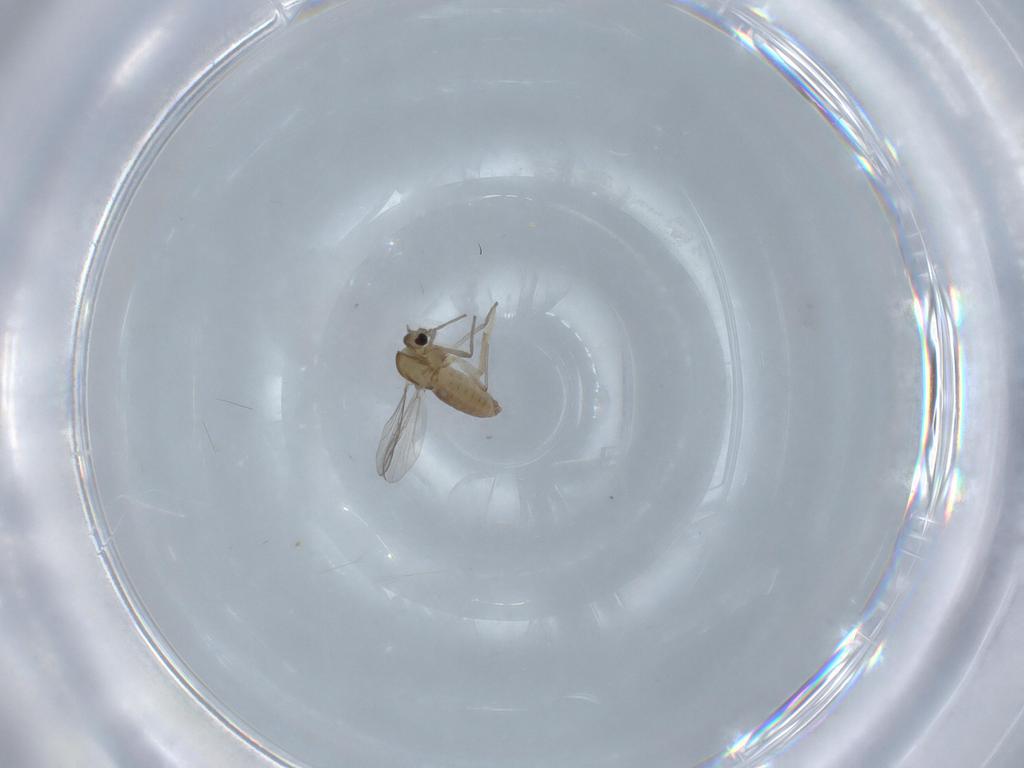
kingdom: Animalia
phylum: Arthropoda
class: Insecta
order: Diptera
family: Chironomidae
